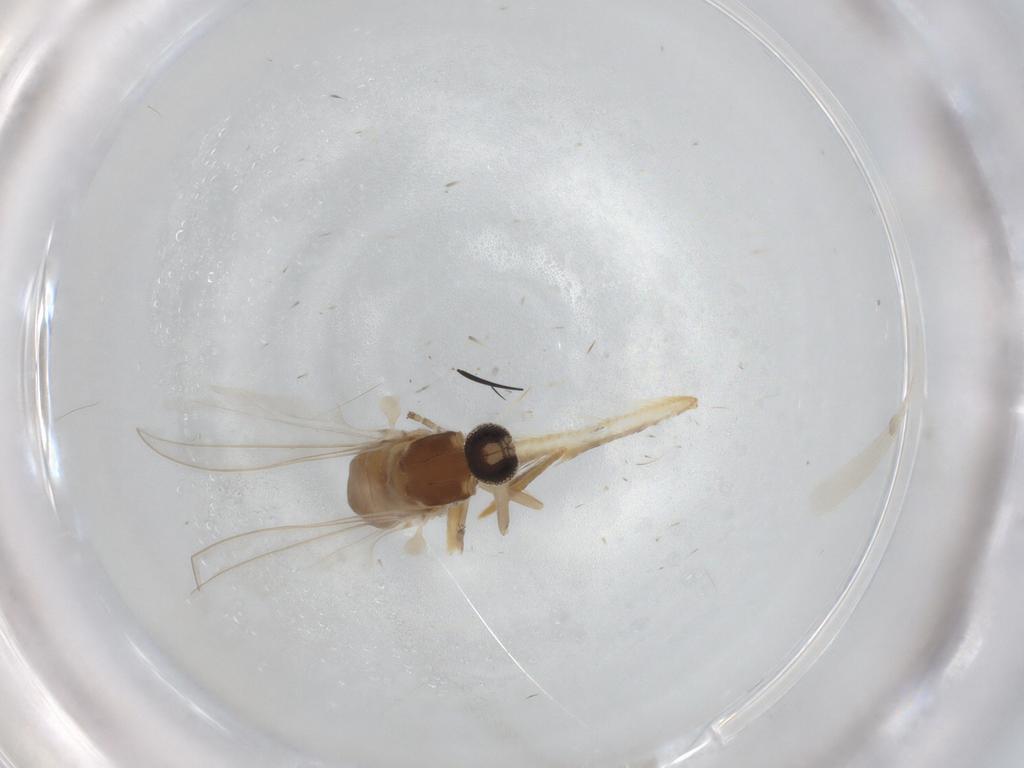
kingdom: Animalia
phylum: Arthropoda
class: Insecta
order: Diptera
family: Cecidomyiidae
